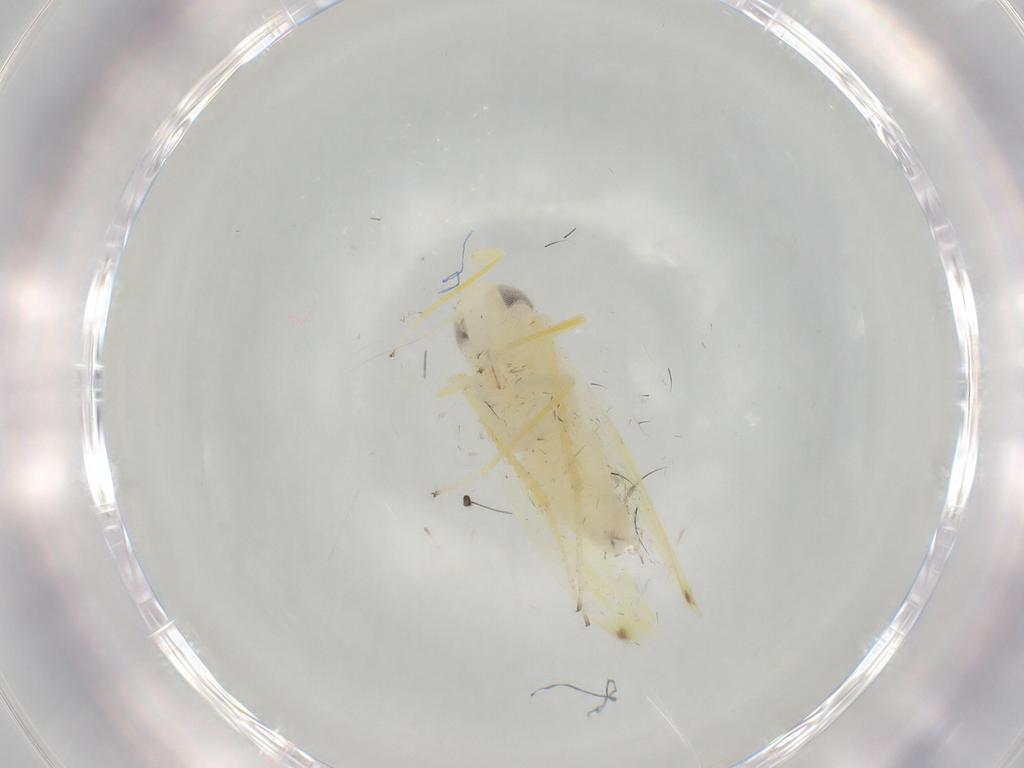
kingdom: Animalia
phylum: Arthropoda
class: Insecta
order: Hemiptera
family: Cicadellidae
